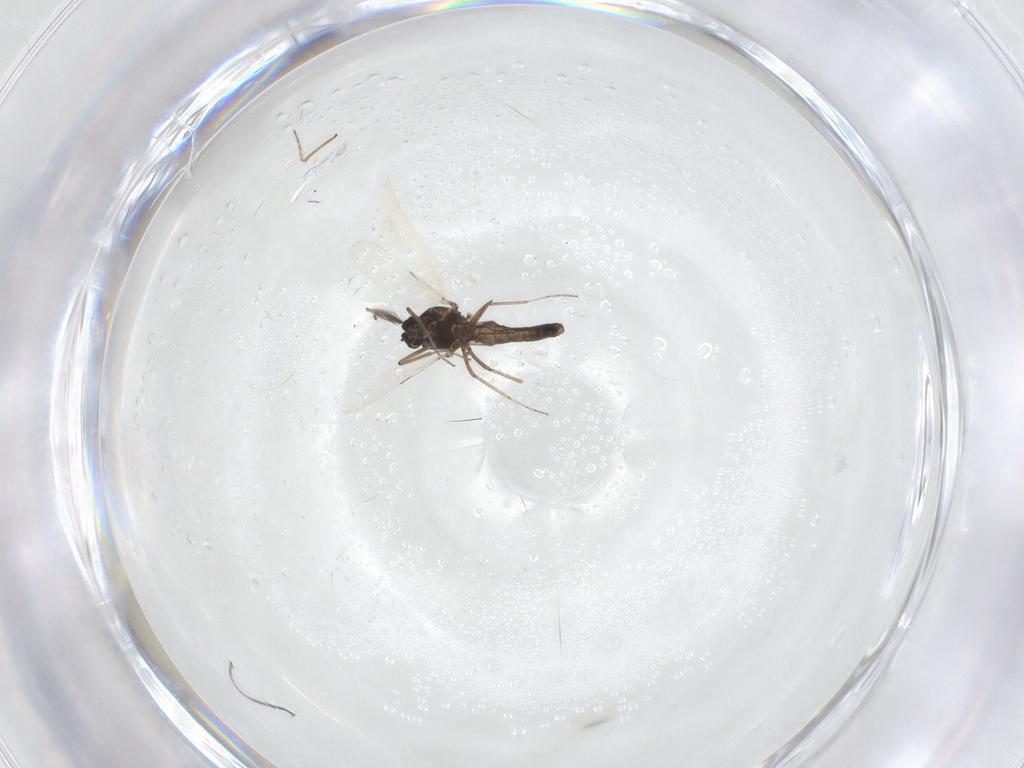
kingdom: Animalia
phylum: Arthropoda
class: Insecta
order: Diptera
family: Ceratopogonidae
